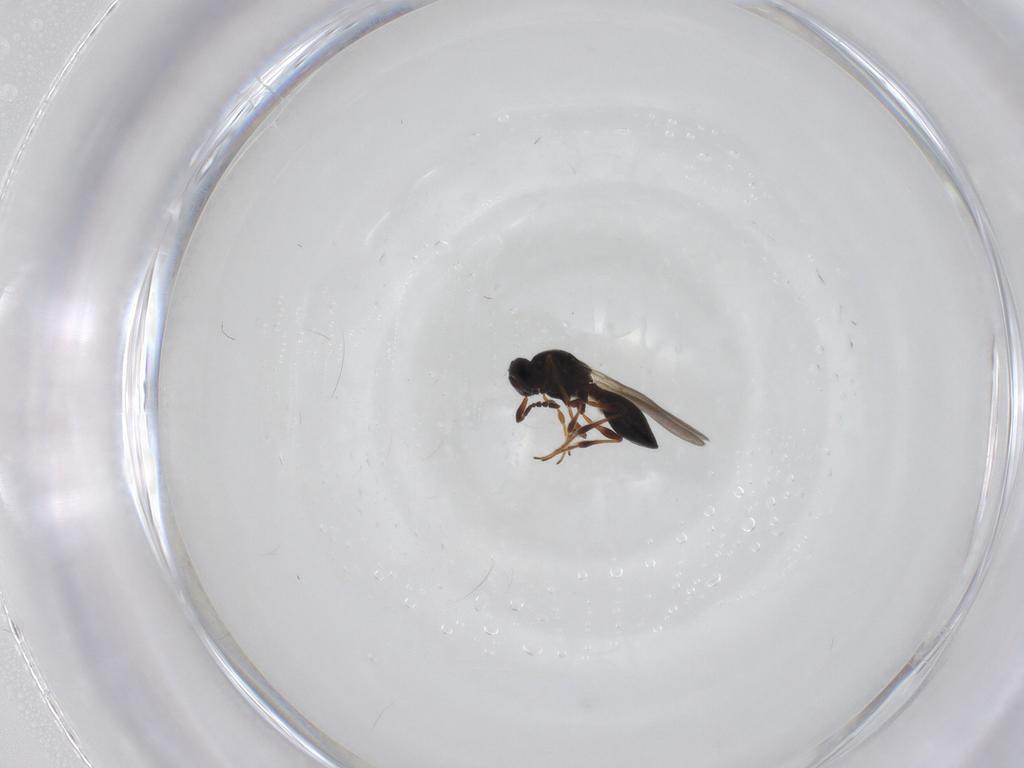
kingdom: Animalia
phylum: Arthropoda
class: Insecta
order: Hymenoptera
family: Platygastridae
